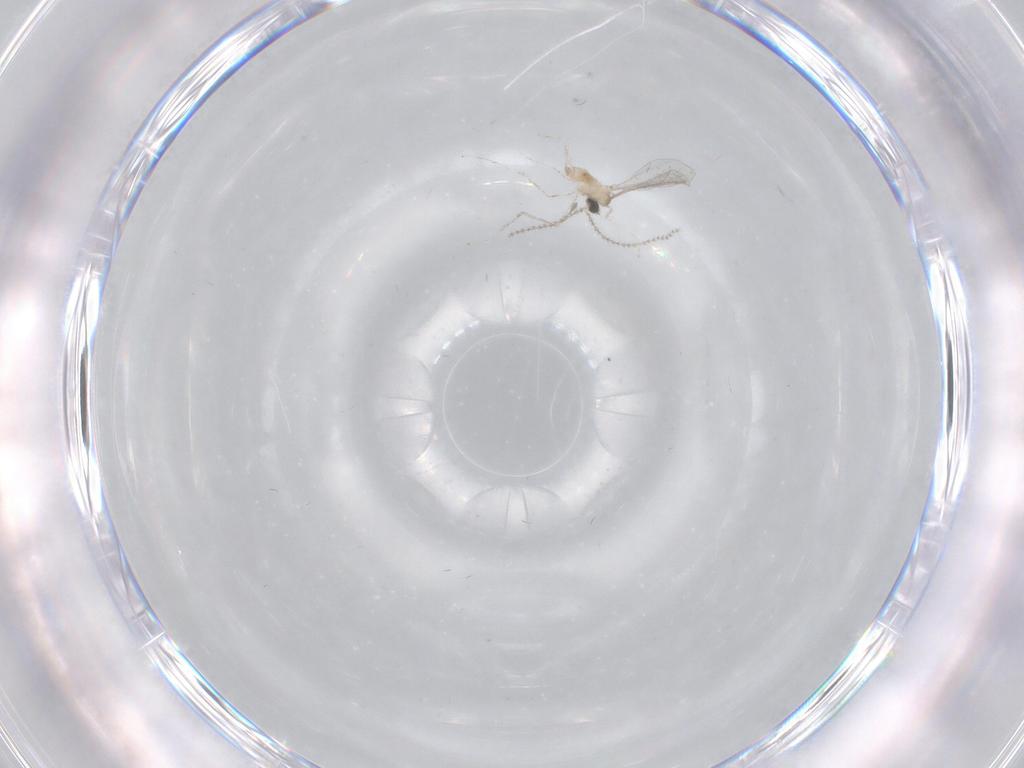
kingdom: Animalia
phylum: Arthropoda
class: Insecta
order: Diptera
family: Cecidomyiidae
